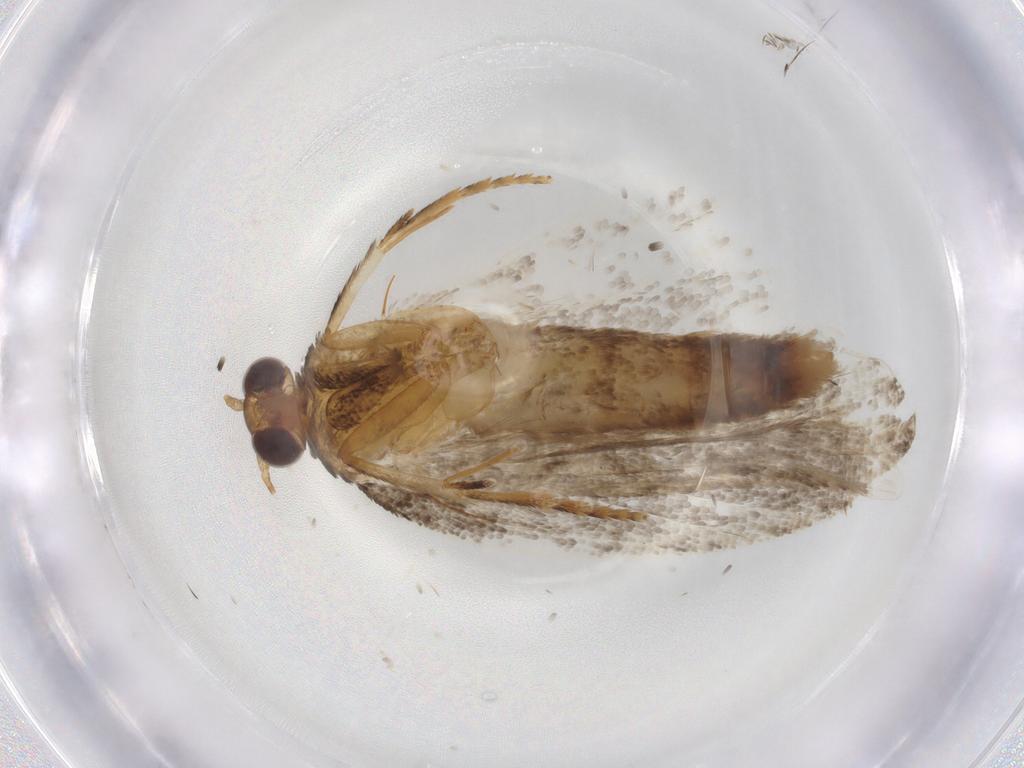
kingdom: Animalia
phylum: Arthropoda
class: Insecta
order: Lepidoptera
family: Tortricidae
